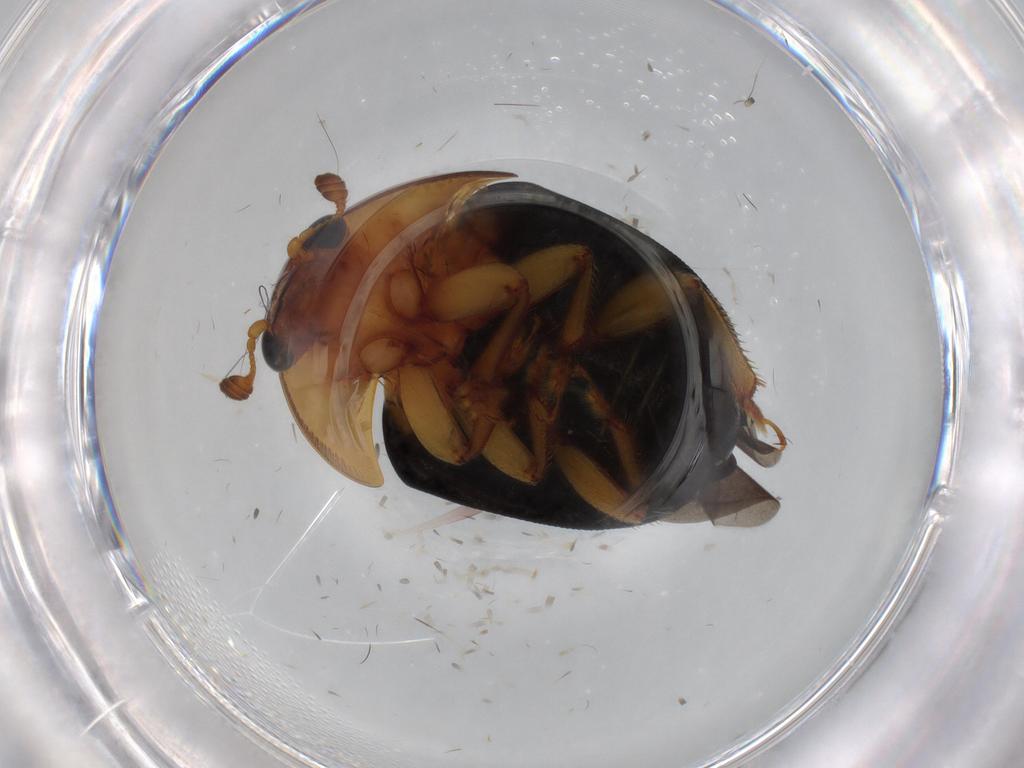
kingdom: Animalia
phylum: Arthropoda
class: Insecta
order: Coleoptera
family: Nitidulidae
